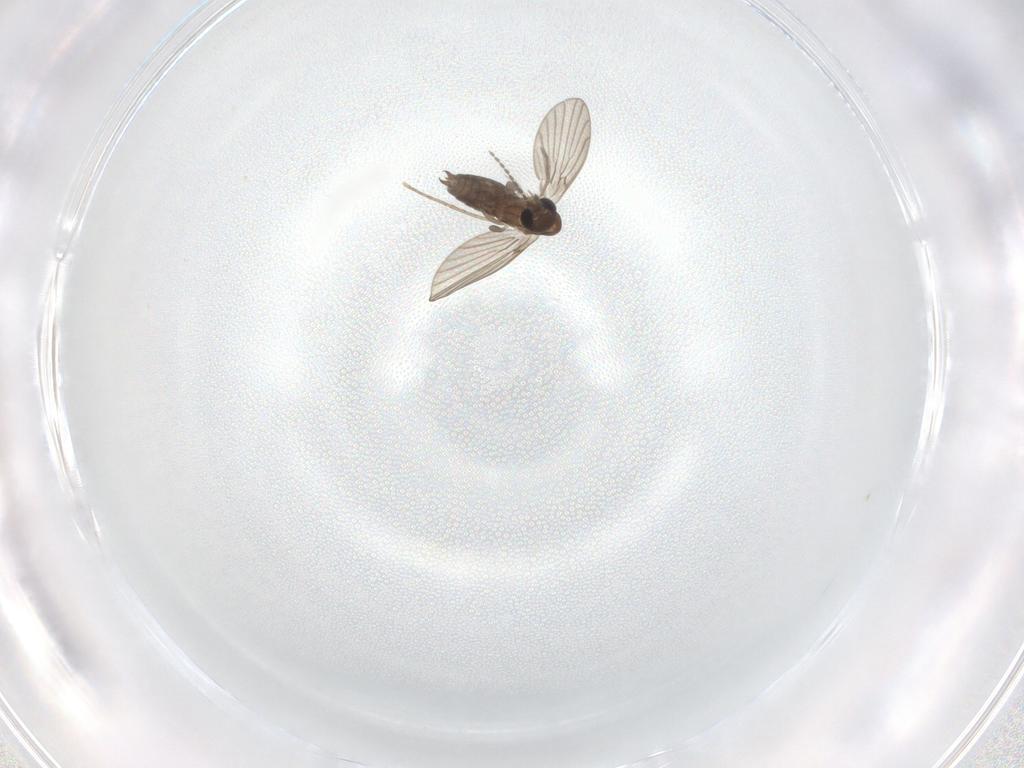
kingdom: Animalia
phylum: Arthropoda
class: Insecta
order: Diptera
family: Cecidomyiidae
